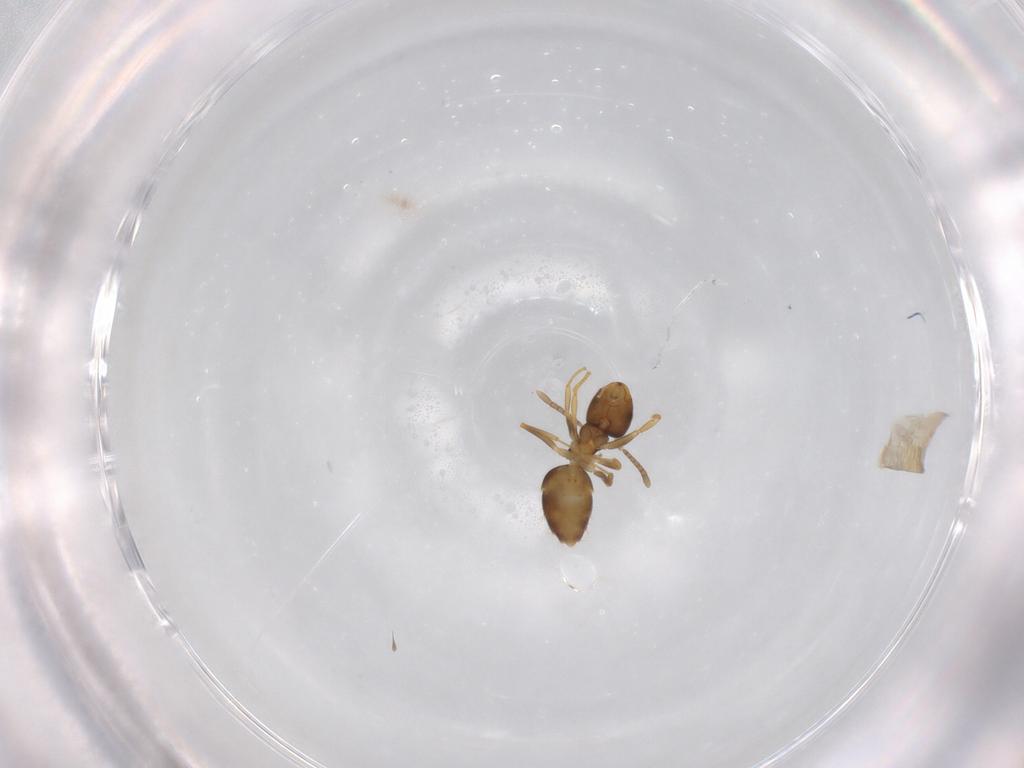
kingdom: Animalia
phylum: Arthropoda
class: Insecta
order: Hymenoptera
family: Formicidae
